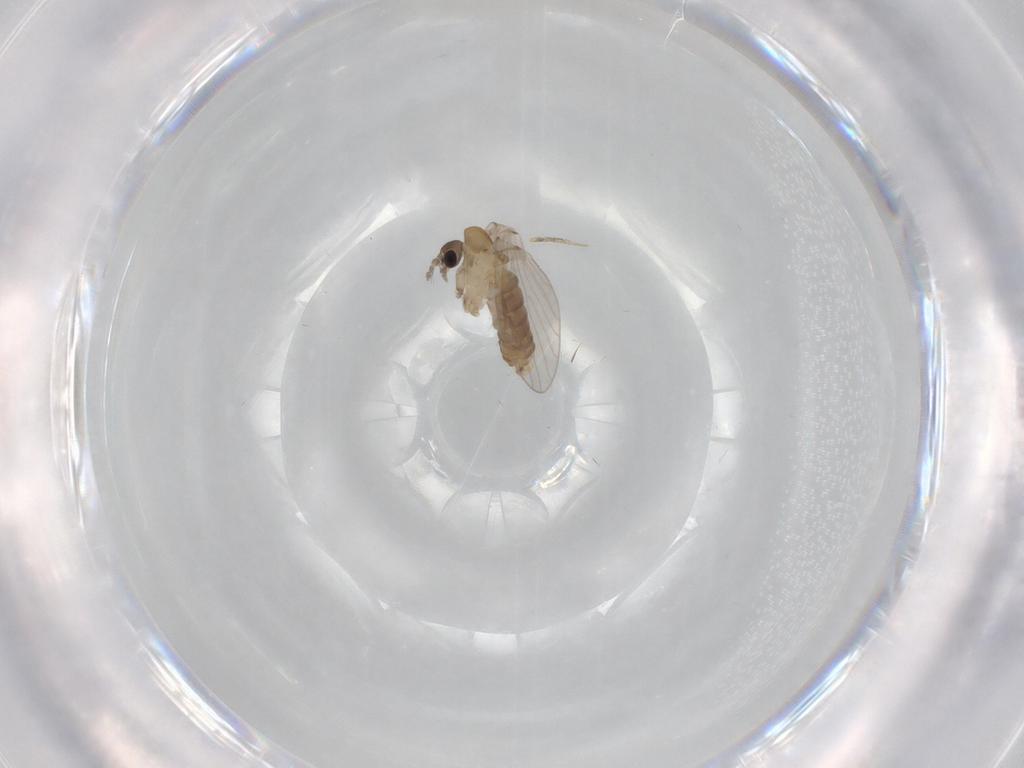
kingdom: Animalia
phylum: Arthropoda
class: Insecta
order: Diptera
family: Psychodidae
